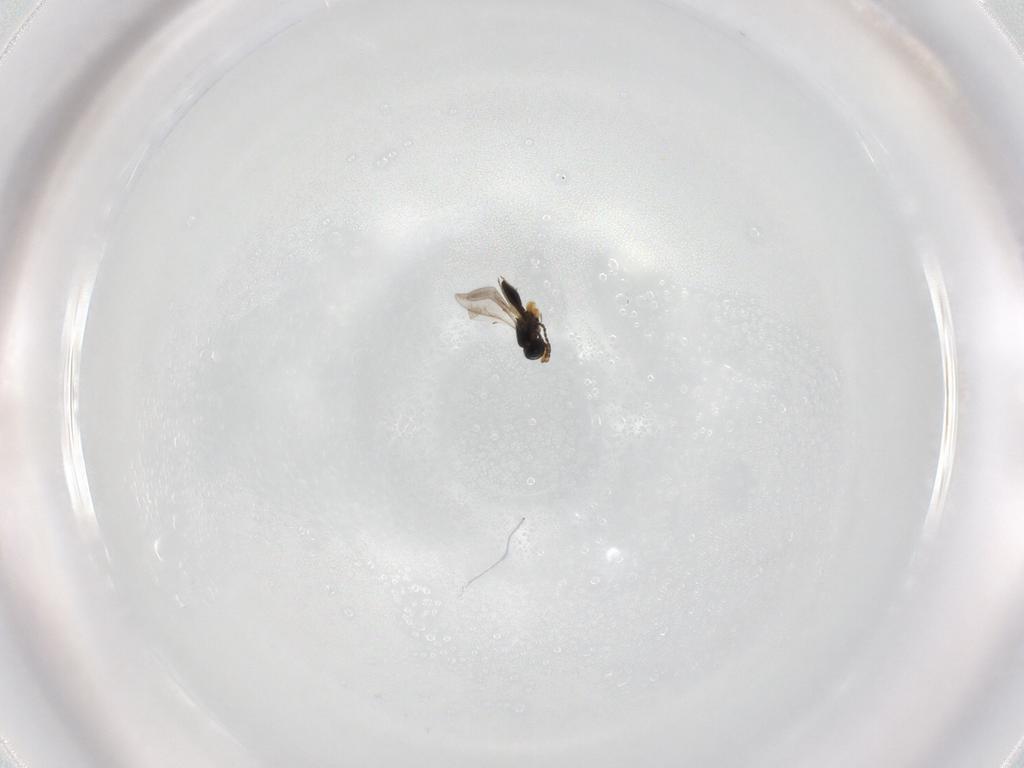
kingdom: Animalia
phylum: Arthropoda
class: Insecta
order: Hymenoptera
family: Scelionidae
